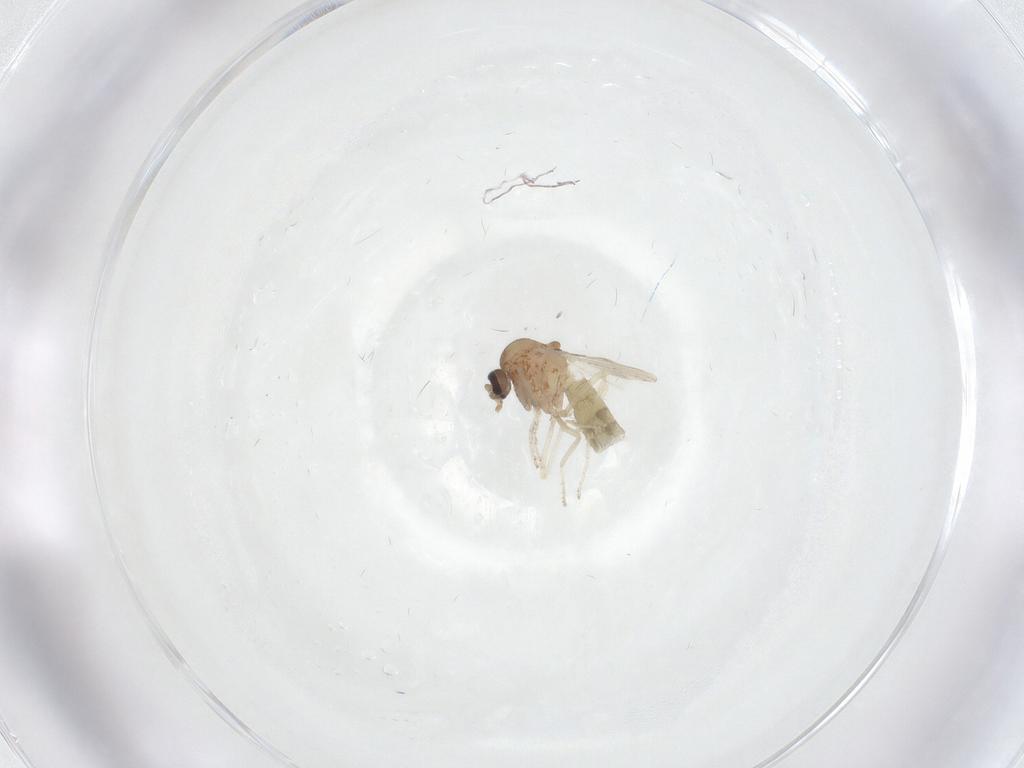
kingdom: Animalia
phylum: Arthropoda
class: Insecta
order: Diptera
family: Ceratopogonidae
